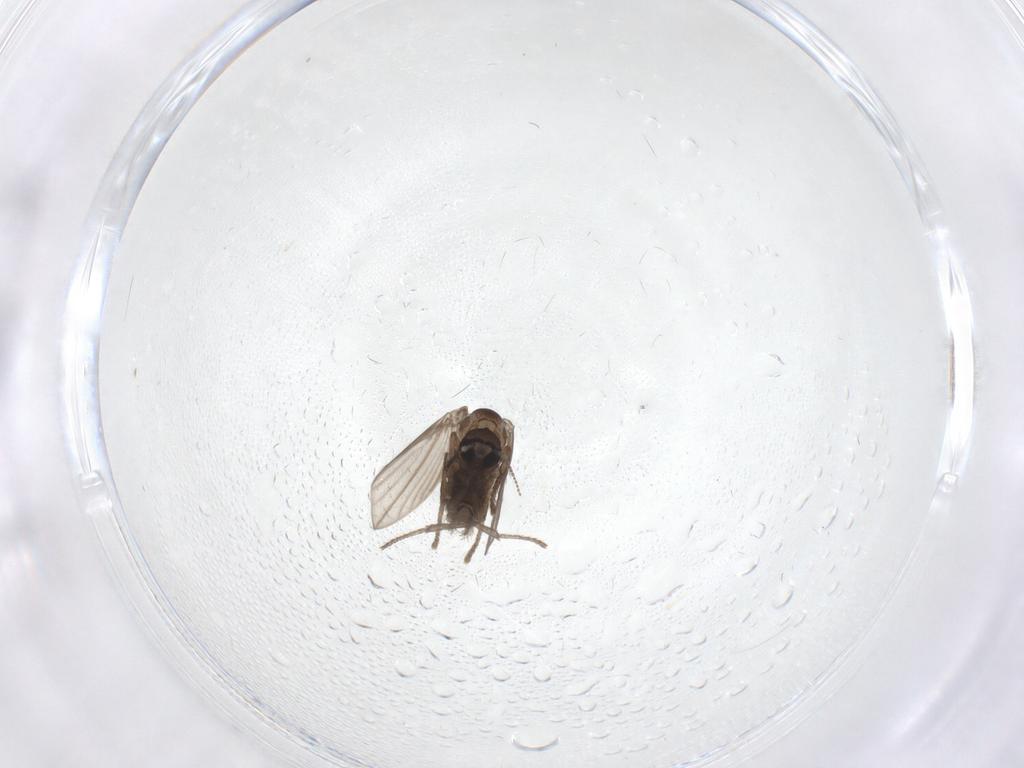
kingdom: Animalia
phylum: Arthropoda
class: Insecta
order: Diptera
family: Psychodidae
